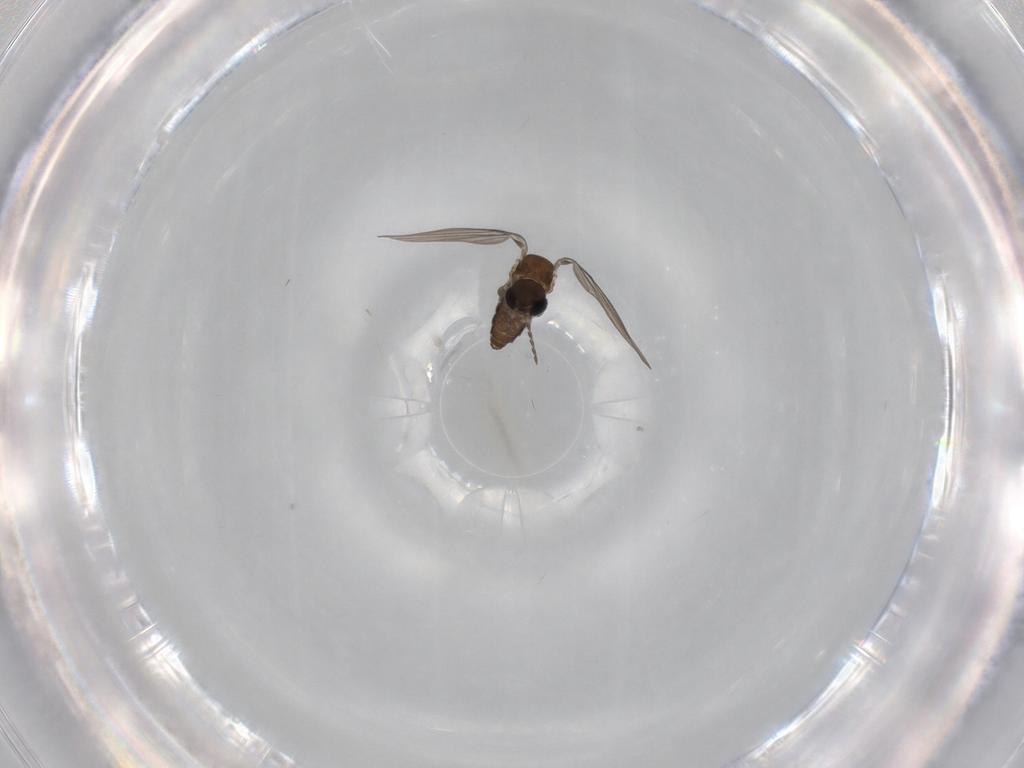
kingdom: Animalia
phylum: Arthropoda
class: Insecta
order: Diptera
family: Psychodidae
